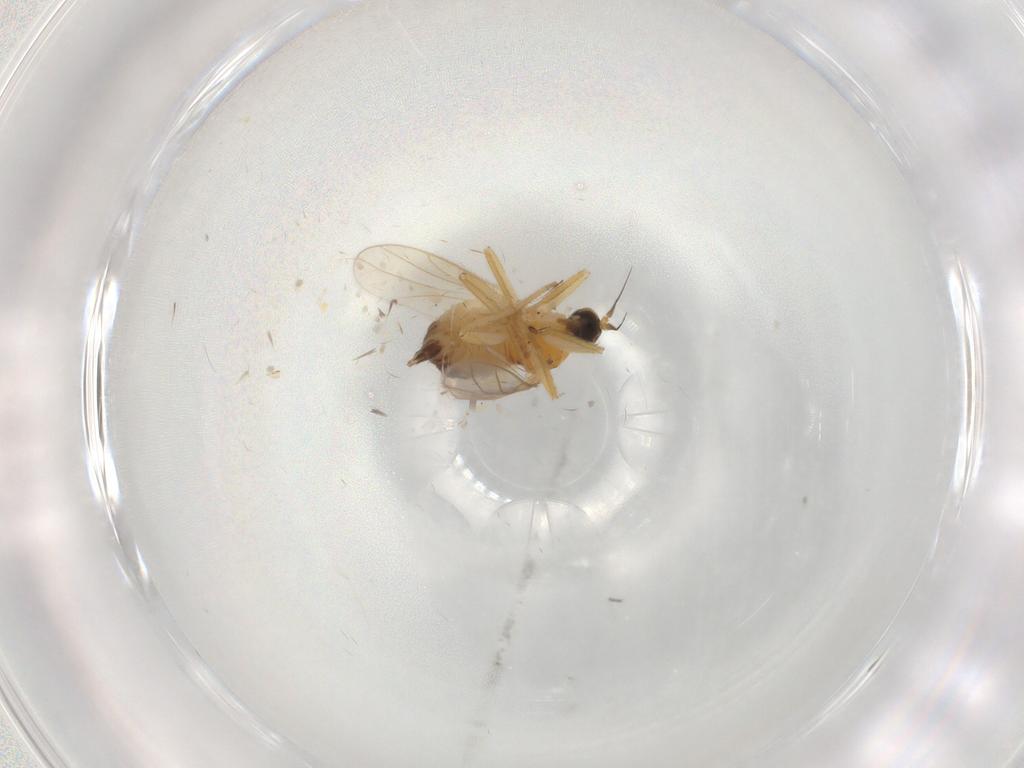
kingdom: Animalia
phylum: Arthropoda
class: Insecta
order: Diptera
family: Hybotidae
